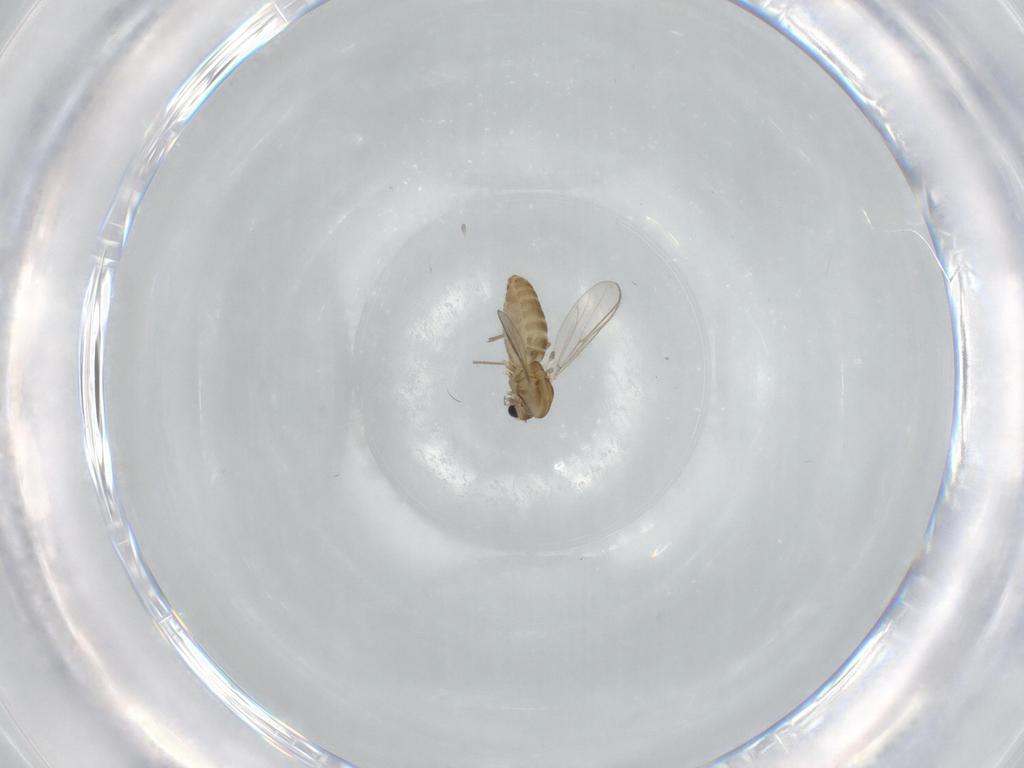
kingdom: Animalia
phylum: Arthropoda
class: Insecta
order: Diptera
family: Chironomidae
